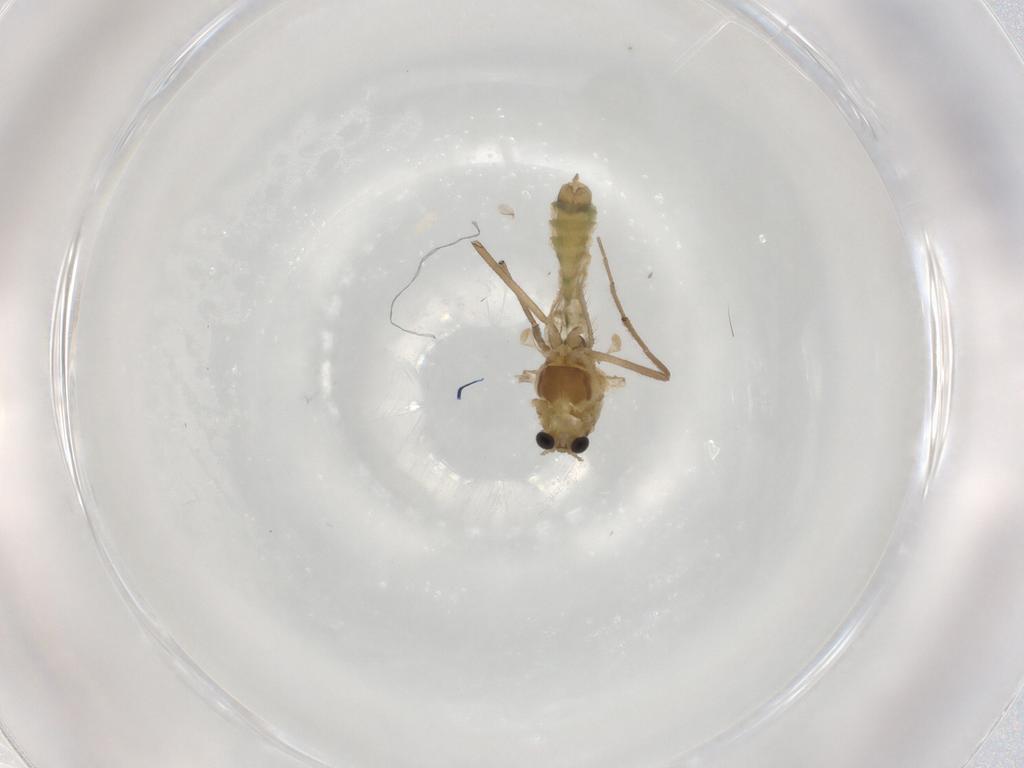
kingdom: Animalia
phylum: Arthropoda
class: Insecta
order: Diptera
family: Chironomidae
